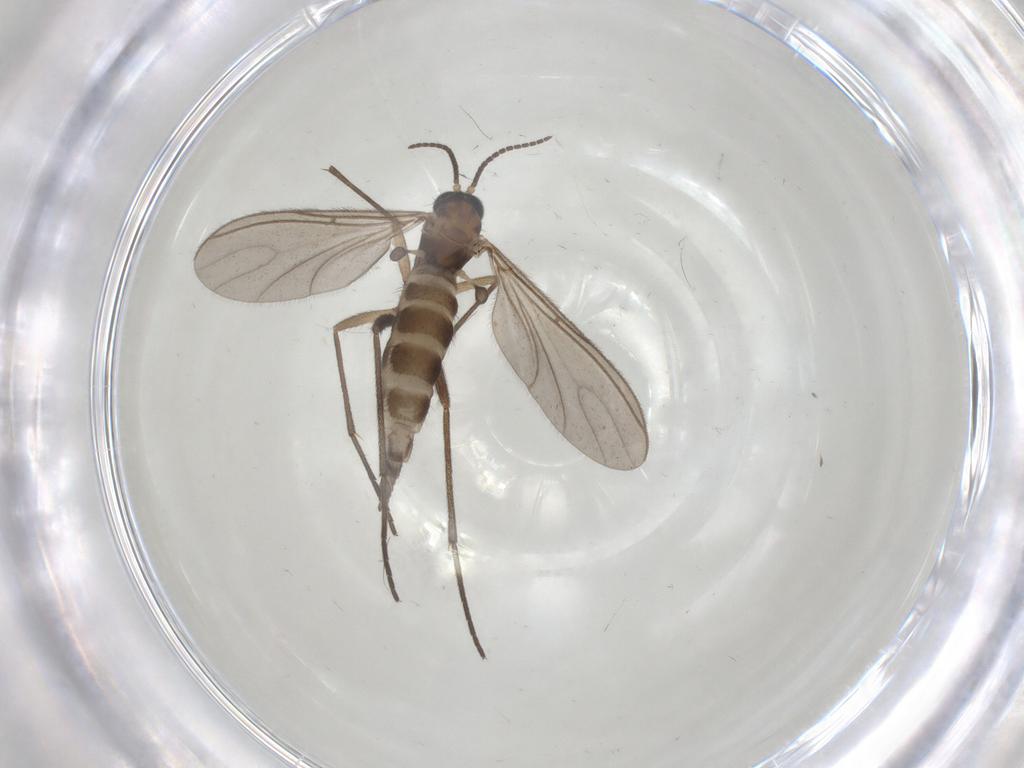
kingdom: Animalia
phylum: Arthropoda
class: Insecta
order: Diptera
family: Sciaridae
